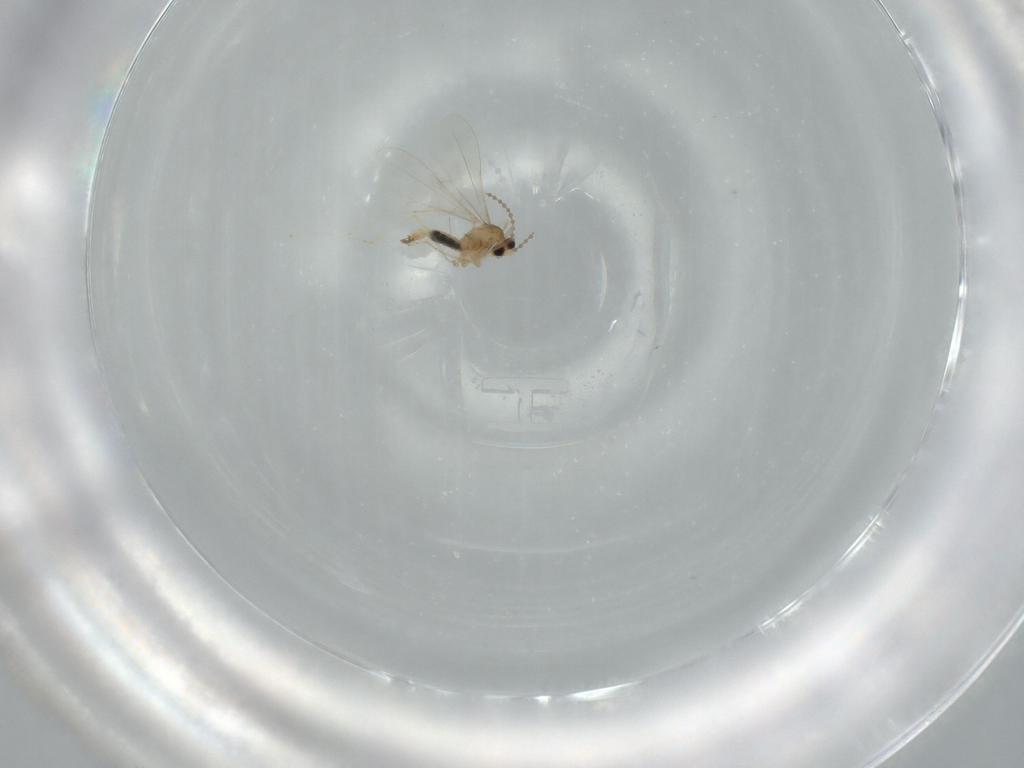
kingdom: Animalia
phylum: Arthropoda
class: Insecta
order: Diptera
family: Cecidomyiidae
